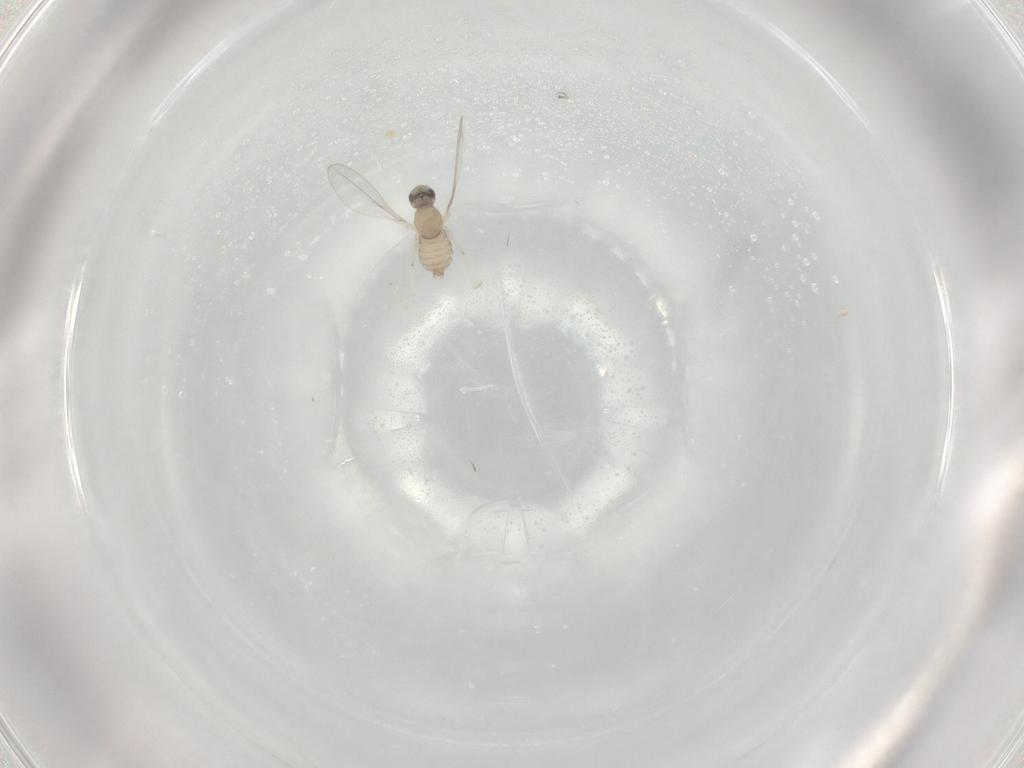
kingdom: Animalia
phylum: Arthropoda
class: Insecta
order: Diptera
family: Cecidomyiidae
